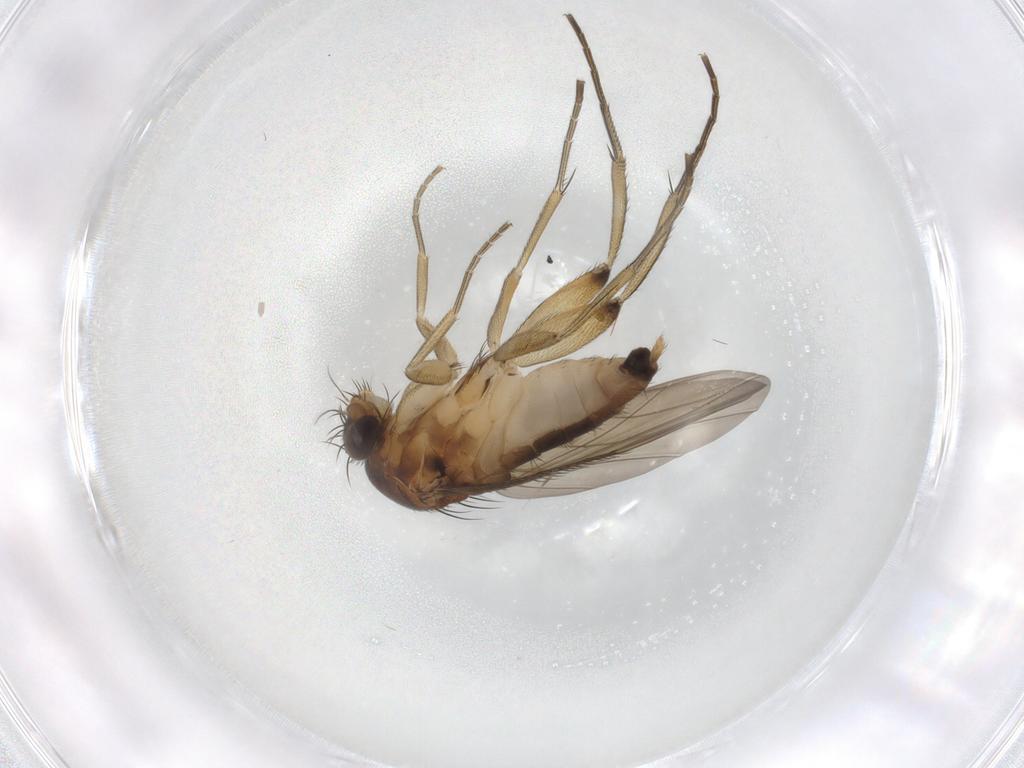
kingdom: Animalia
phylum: Arthropoda
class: Insecta
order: Diptera
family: Phoridae
